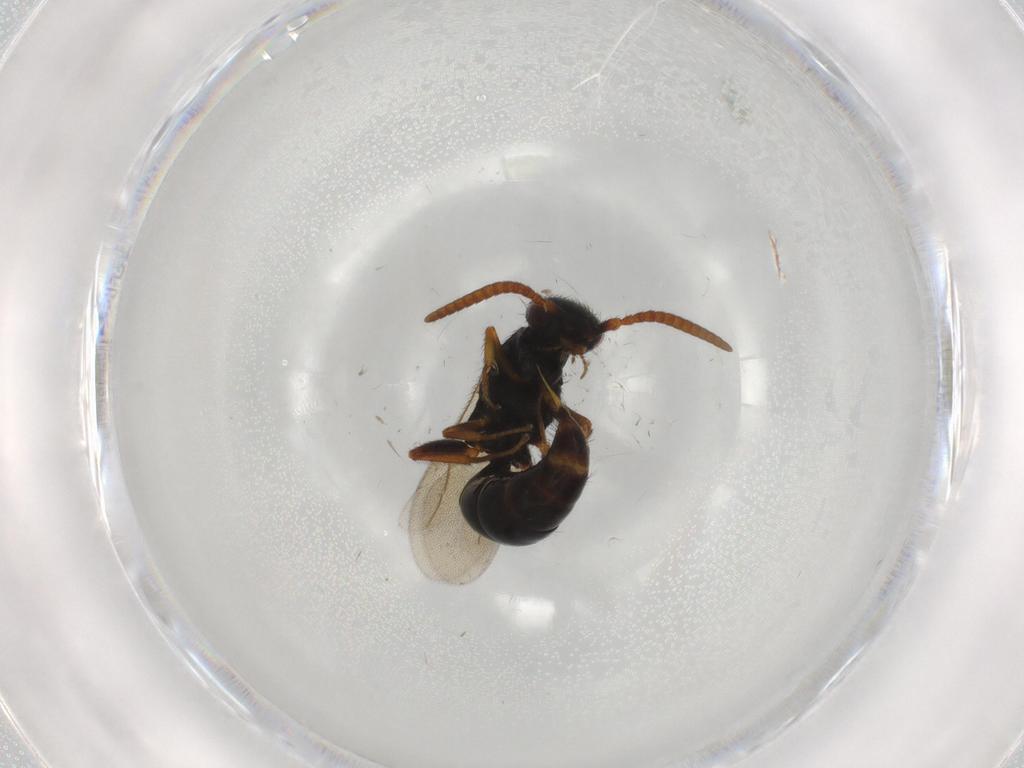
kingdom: Animalia
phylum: Arthropoda
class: Insecta
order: Hymenoptera
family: Bethylidae
